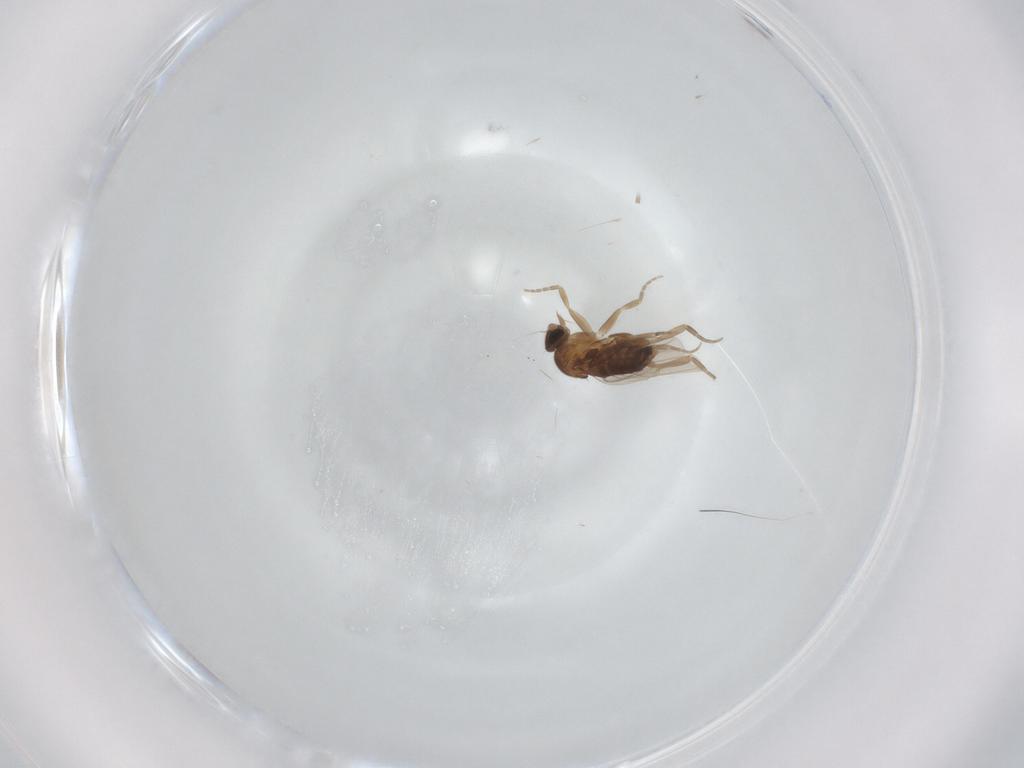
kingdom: Animalia
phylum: Arthropoda
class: Insecta
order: Diptera
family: Phoridae
